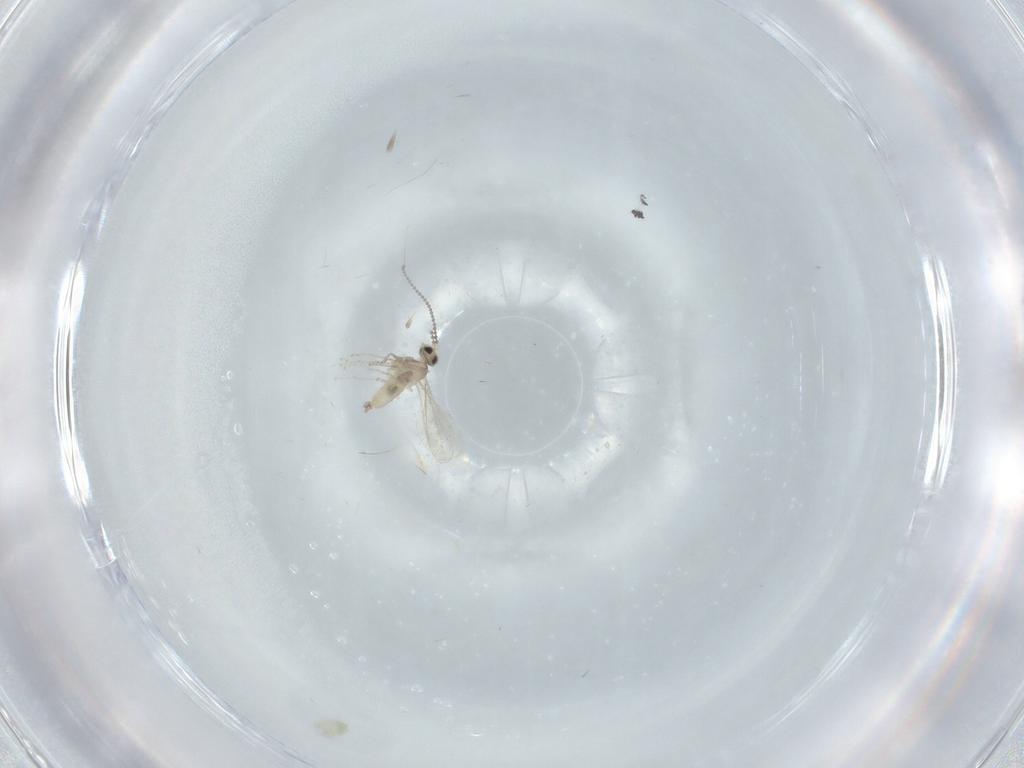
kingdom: Animalia
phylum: Arthropoda
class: Insecta
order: Diptera
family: Cecidomyiidae
